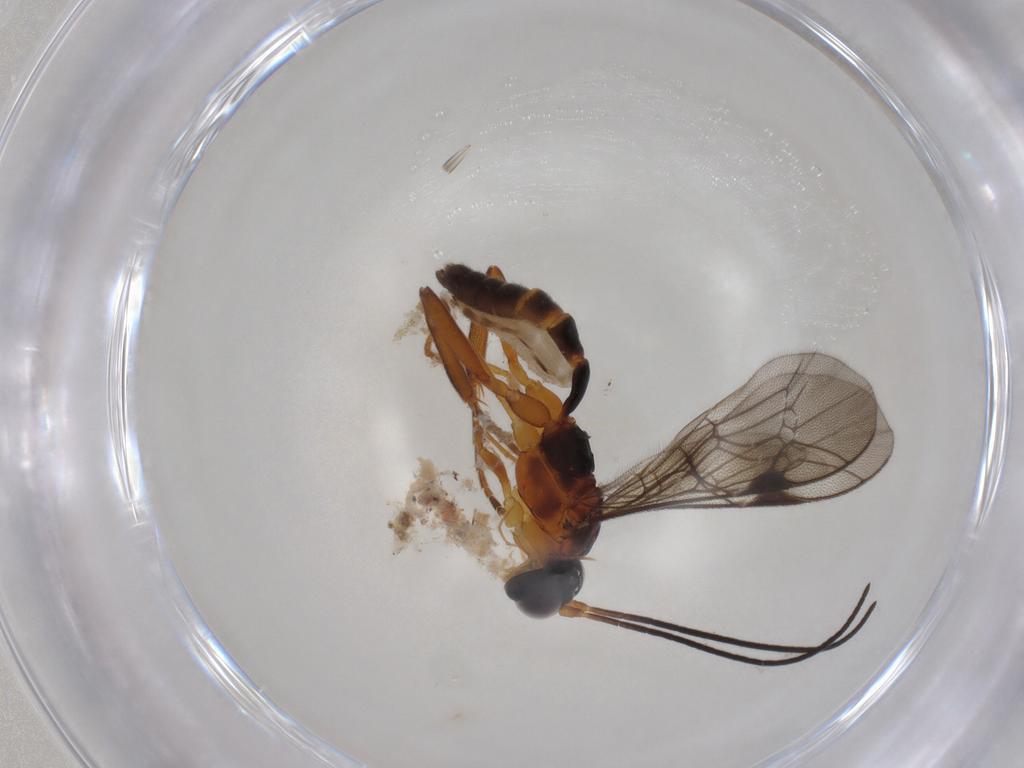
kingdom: Animalia
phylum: Arthropoda
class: Insecta
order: Hymenoptera
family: Ichneumonidae
